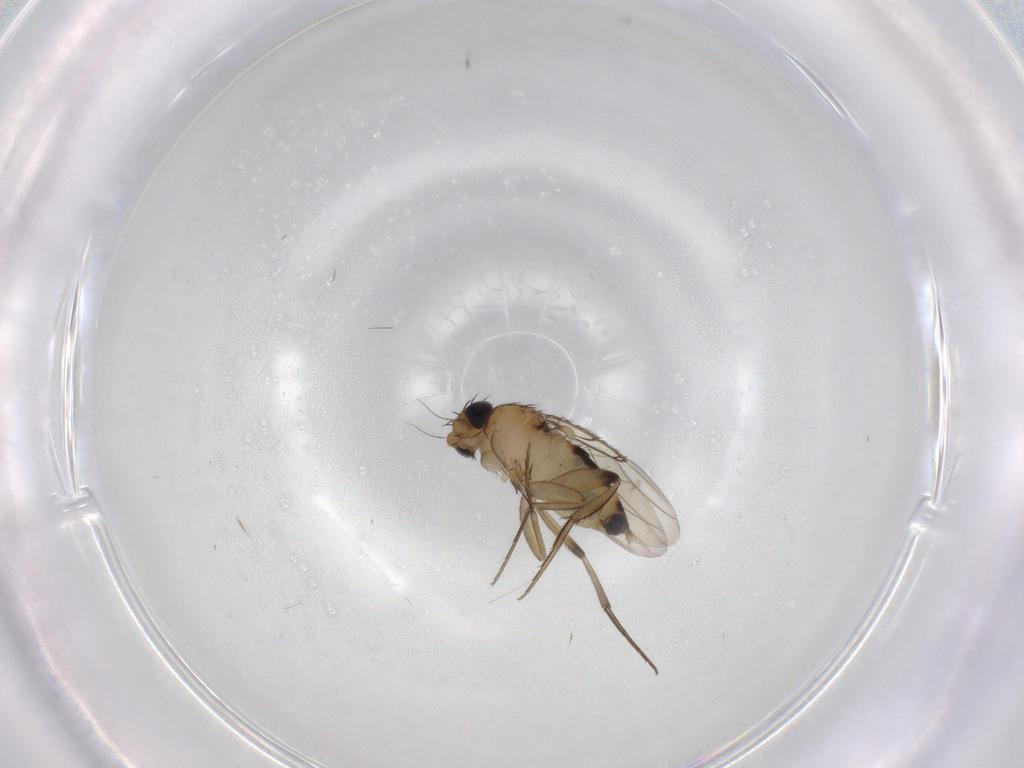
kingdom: Animalia
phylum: Arthropoda
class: Insecta
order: Diptera
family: Phoridae
